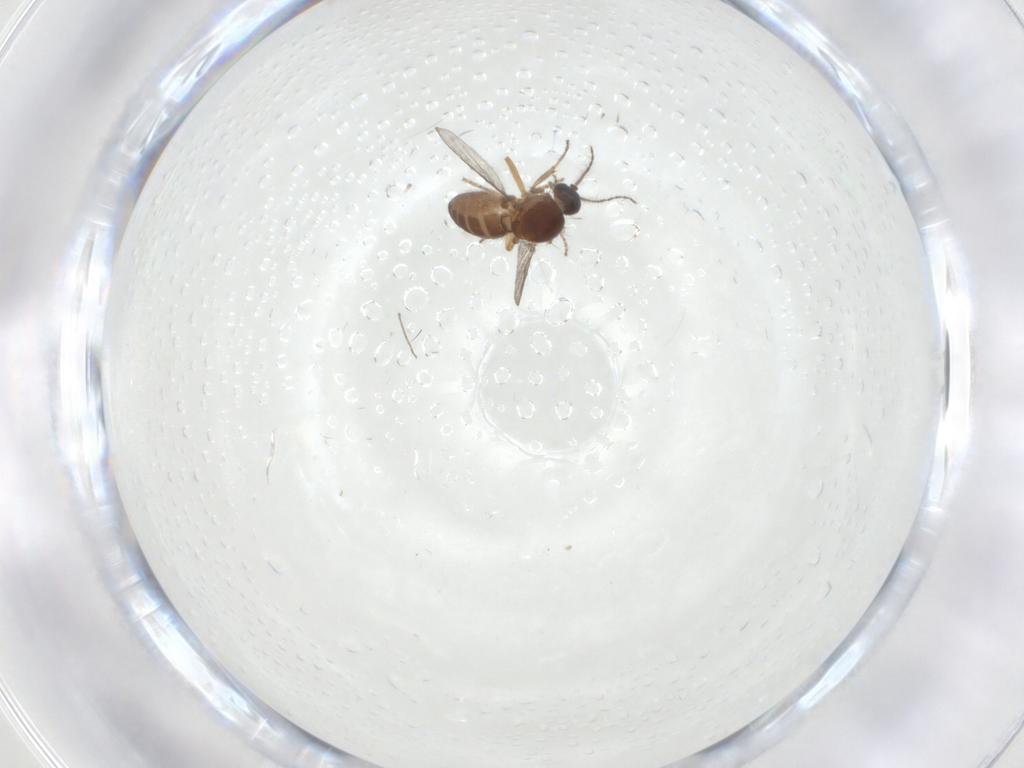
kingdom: Animalia
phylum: Arthropoda
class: Insecta
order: Diptera
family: Ceratopogonidae
